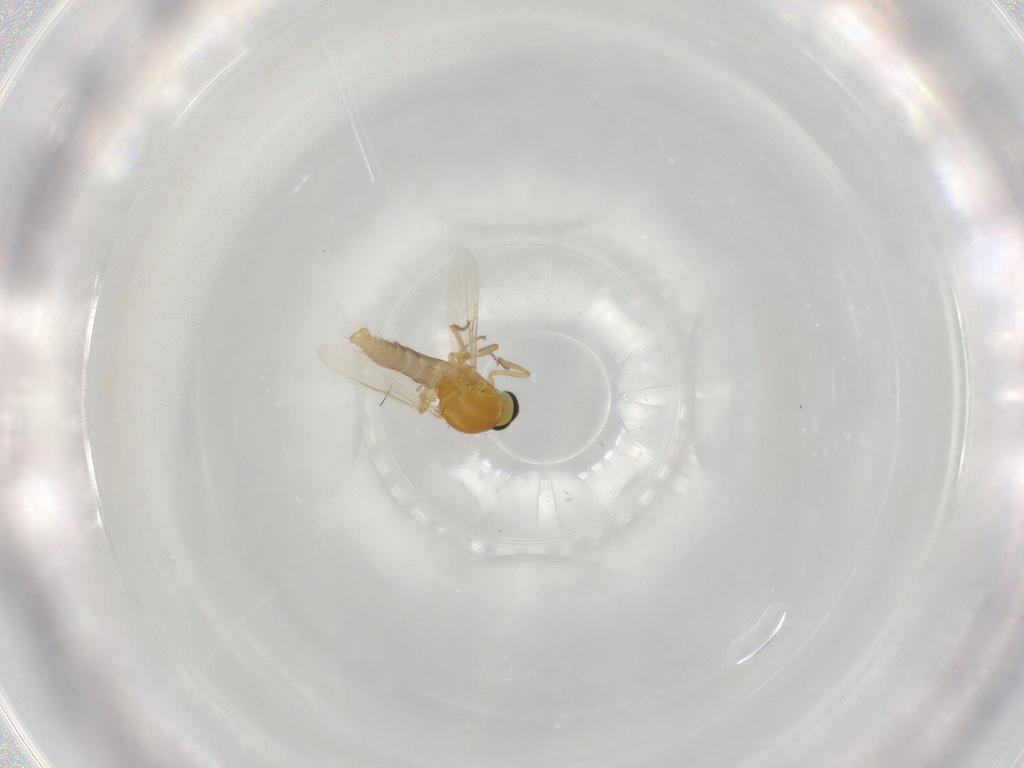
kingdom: Animalia
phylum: Arthropoda
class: Insecta
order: Diptera
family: Ceratopogonidae
